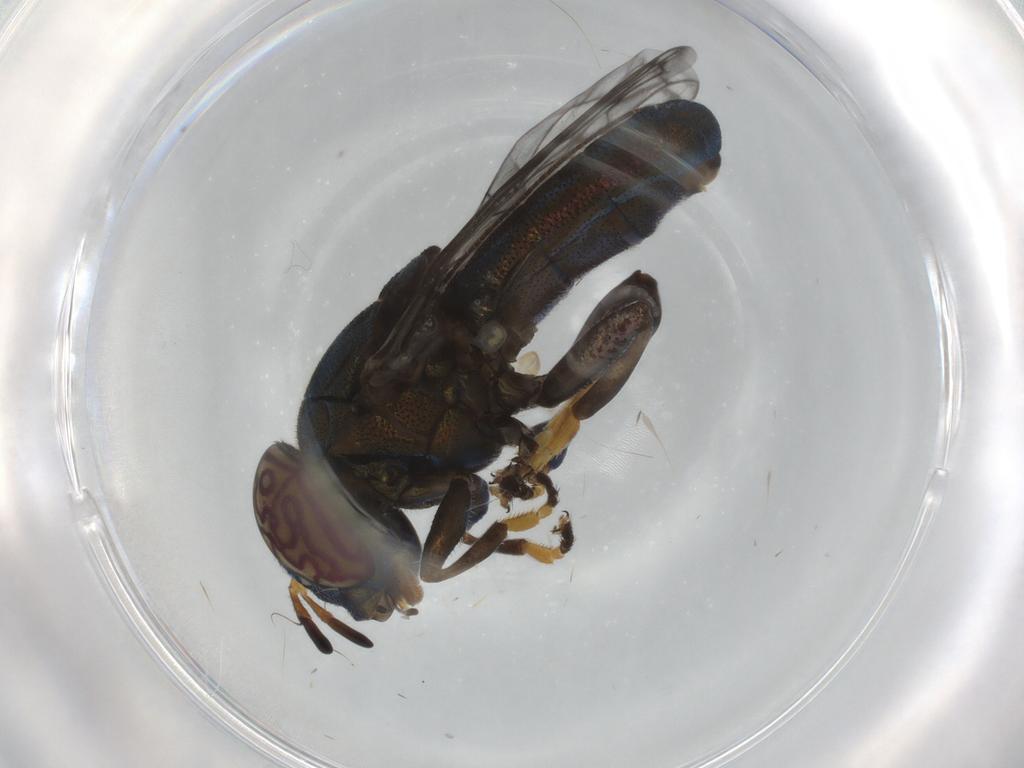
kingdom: Animalia
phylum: Arthropoda
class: Insecta
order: Diptera
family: Syrphidae
